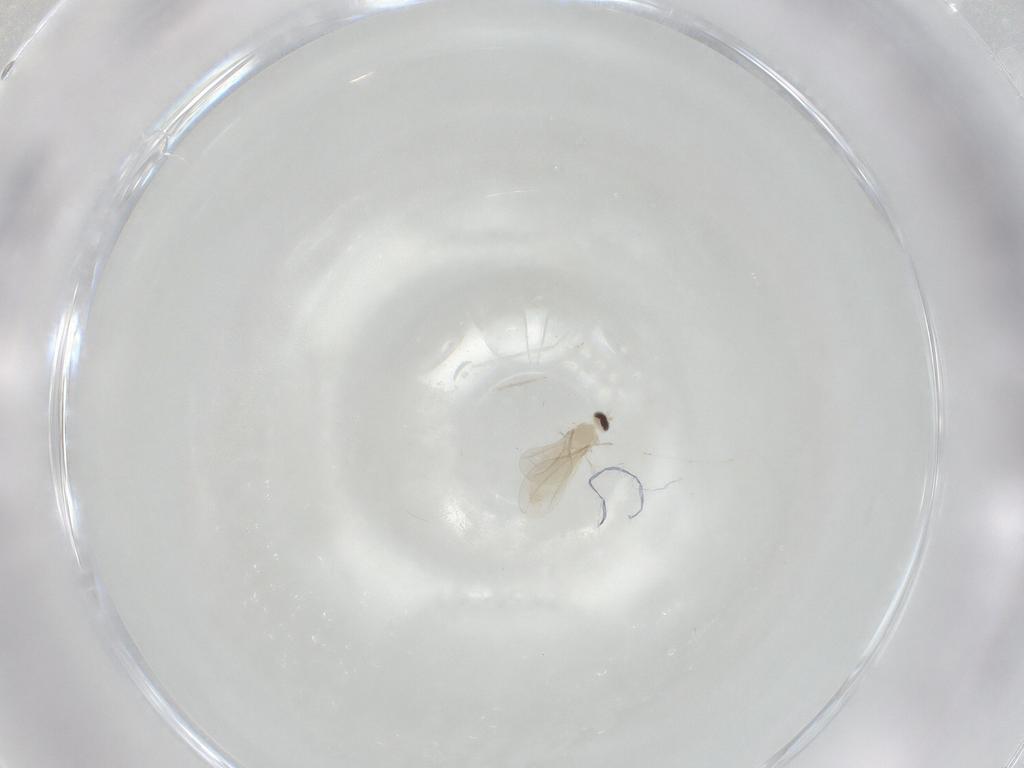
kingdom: Animalia
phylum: Arthropoda
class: Insecta
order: Diptera
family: Cecidomyiidae
